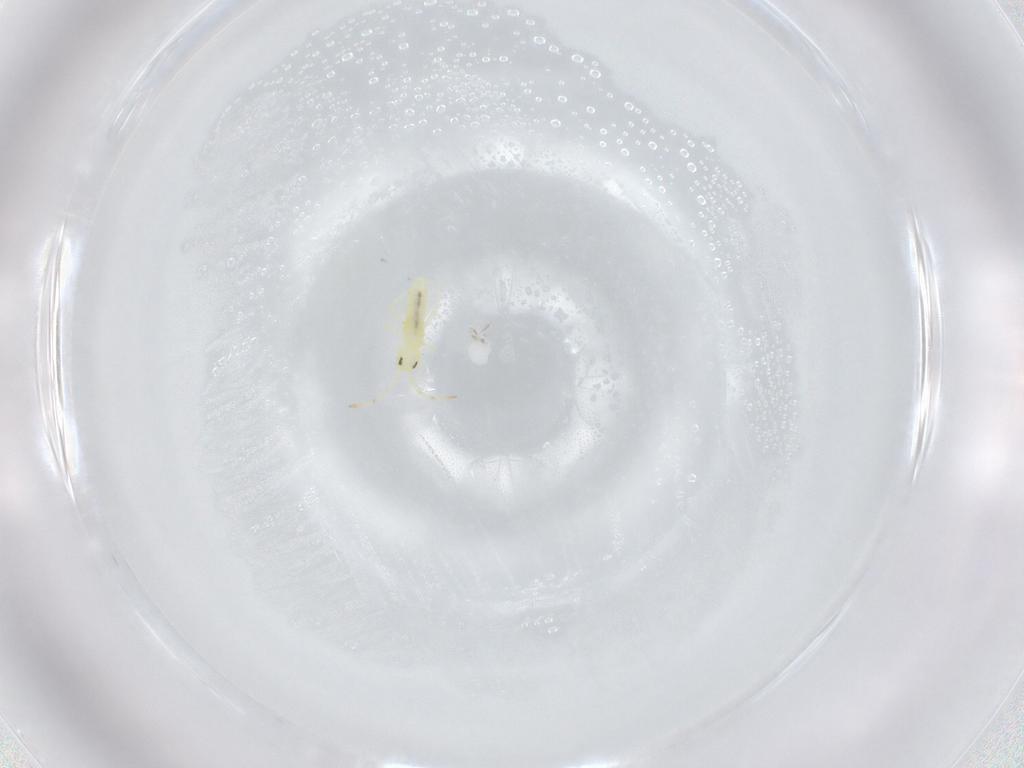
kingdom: Animalia
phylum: Arthropoda
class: Insecta
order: Lepidoptera
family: Tortricidae
